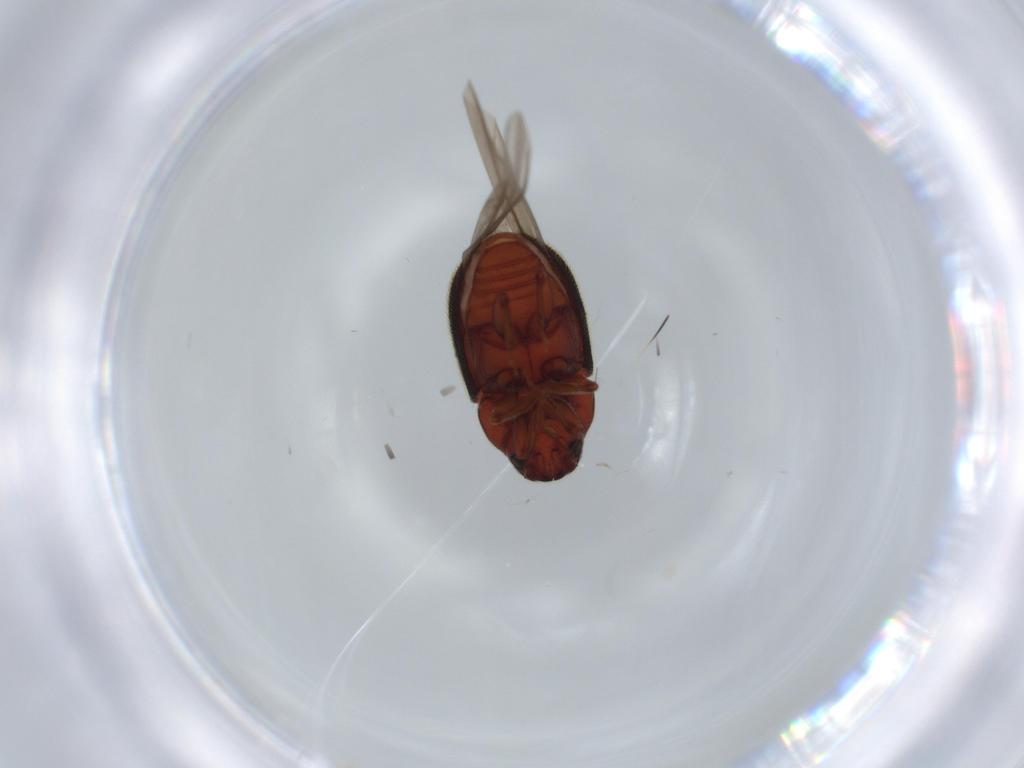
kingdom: Animalia
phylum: Arthropoda
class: Insecta
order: Coleoptera
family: Curculionidae
